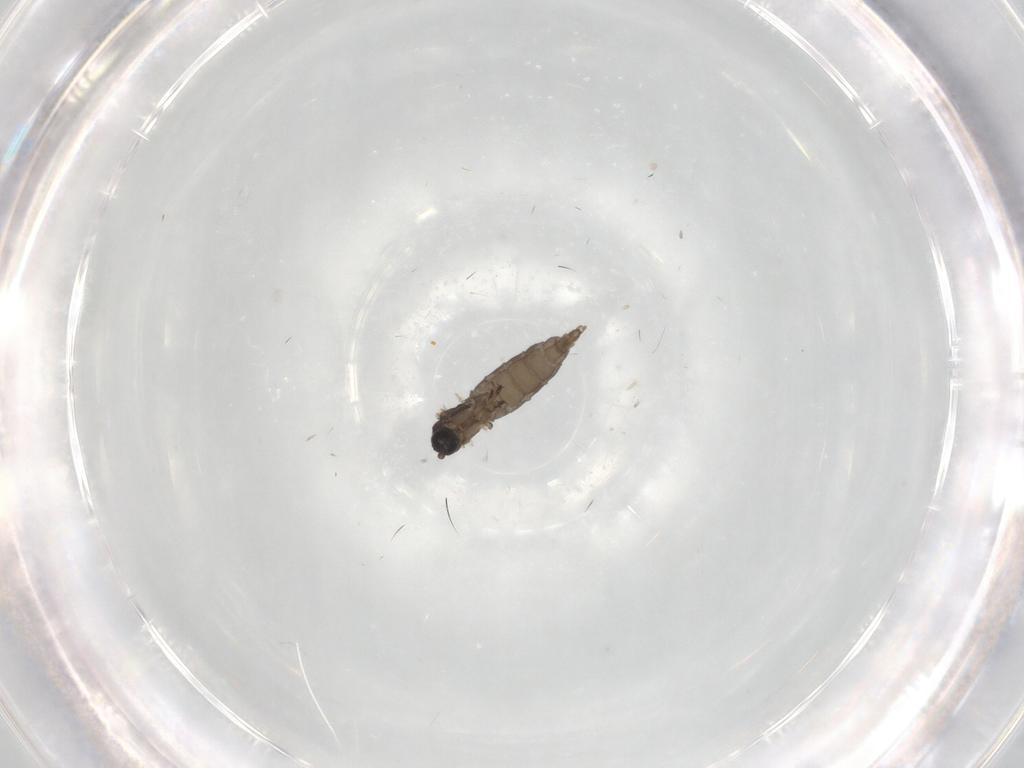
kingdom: Animalia
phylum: Arthropoda
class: Insecta
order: Diptera
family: Sciaridae
